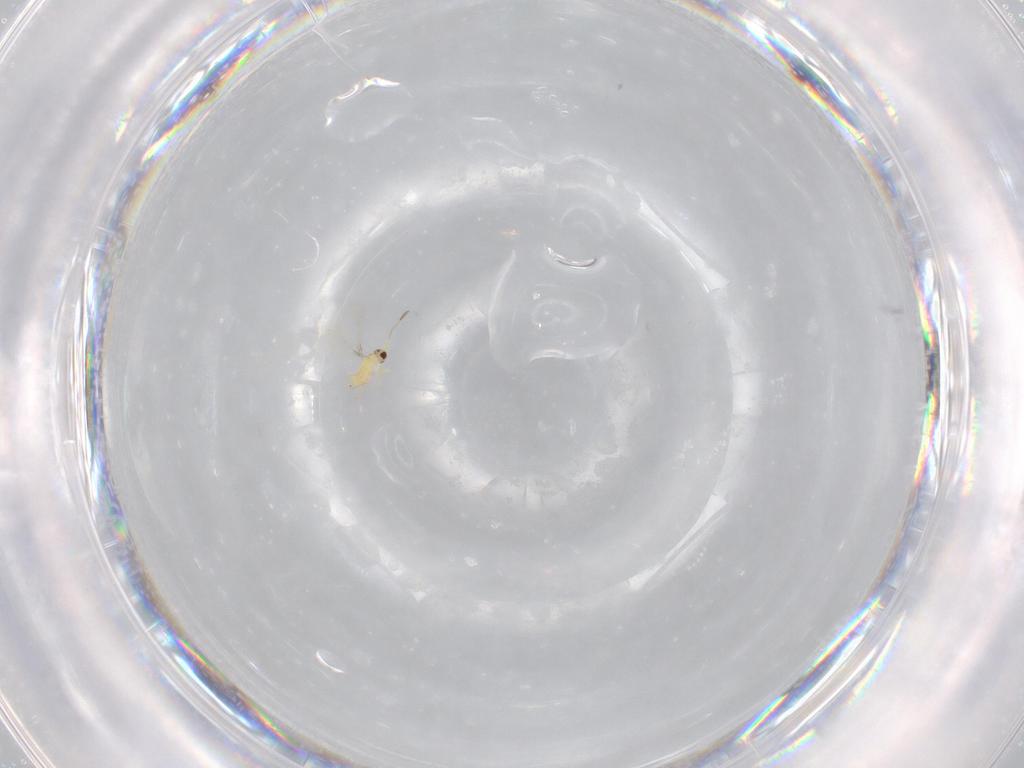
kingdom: Animalia
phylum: Arthropoda
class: Insecta
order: Hymenoptera
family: Mymaridae
